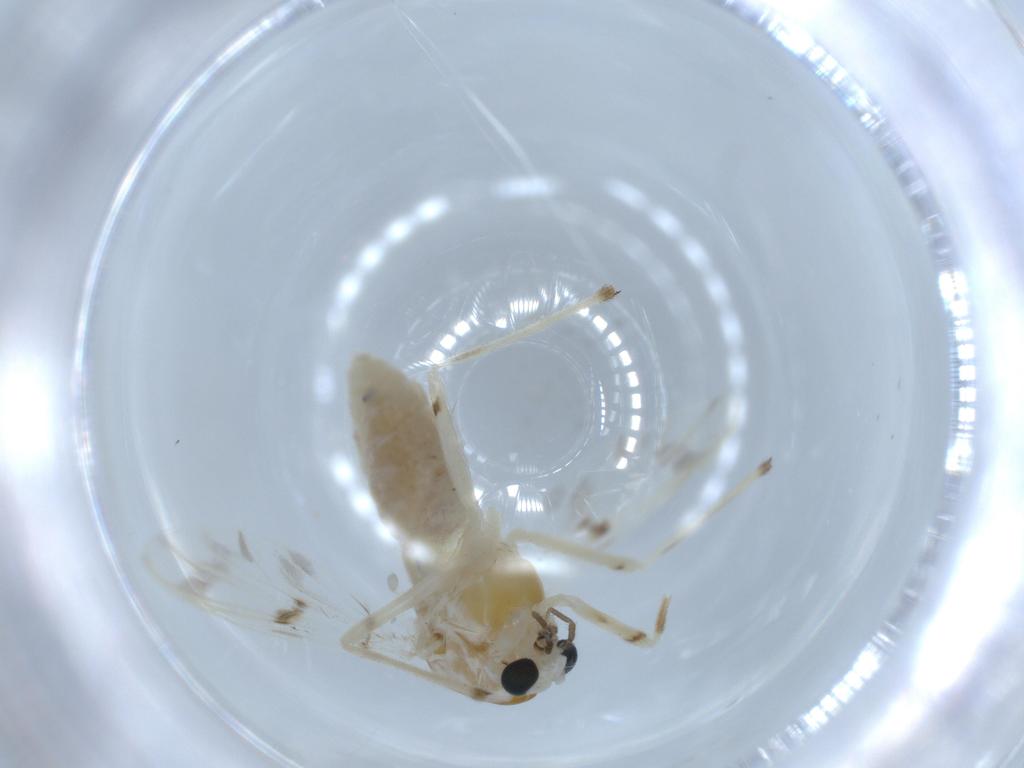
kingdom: Animalia
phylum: Arthropoda
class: Insecta
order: Diptera
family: Chironomidae
